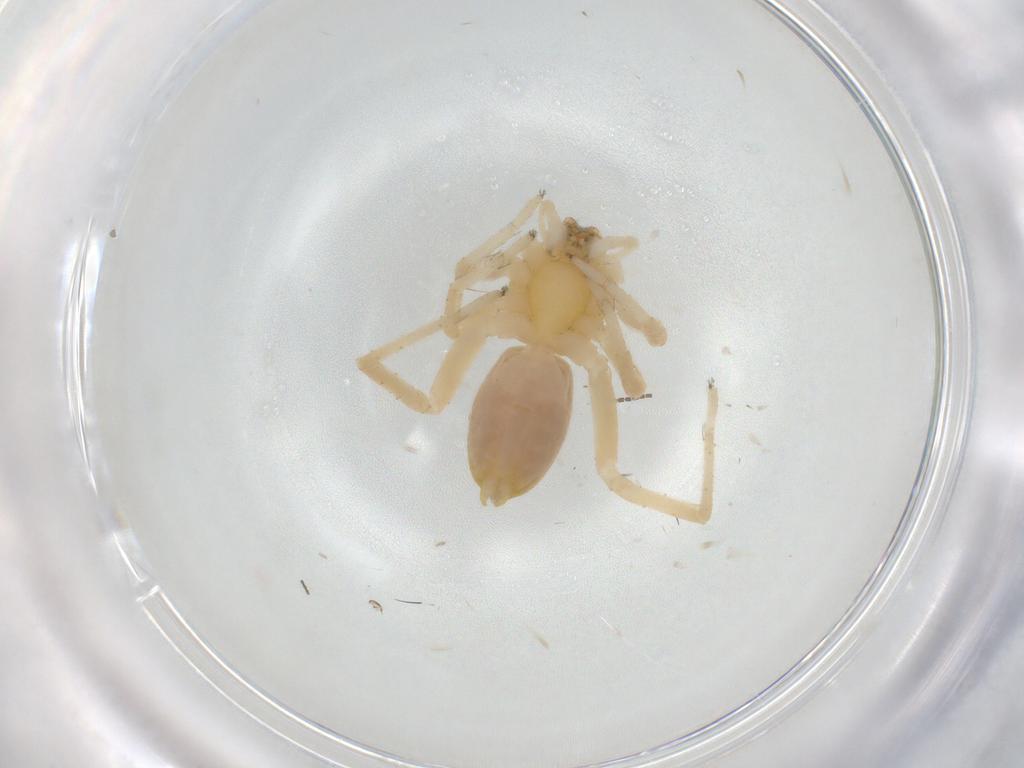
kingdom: Animalia
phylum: Arthropoda
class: Arachnida
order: Araneae
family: Anyphaenidae
